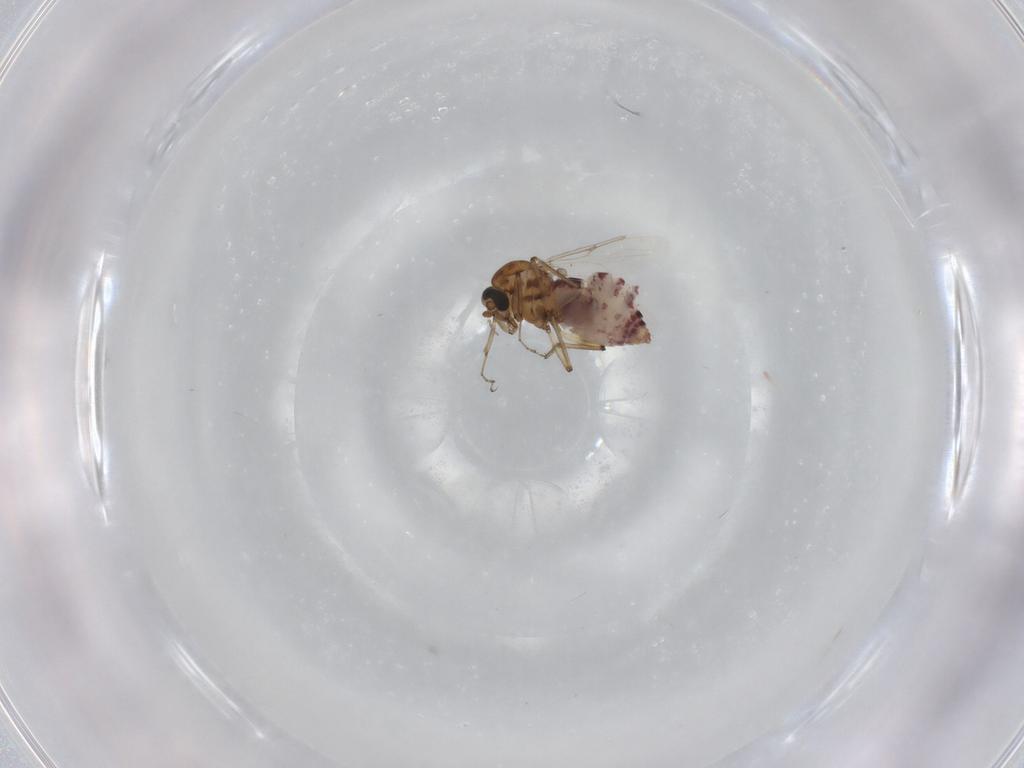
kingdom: Animalia
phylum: Arthropoda
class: Insecta
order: Diptera
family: Ceratopogonidae
